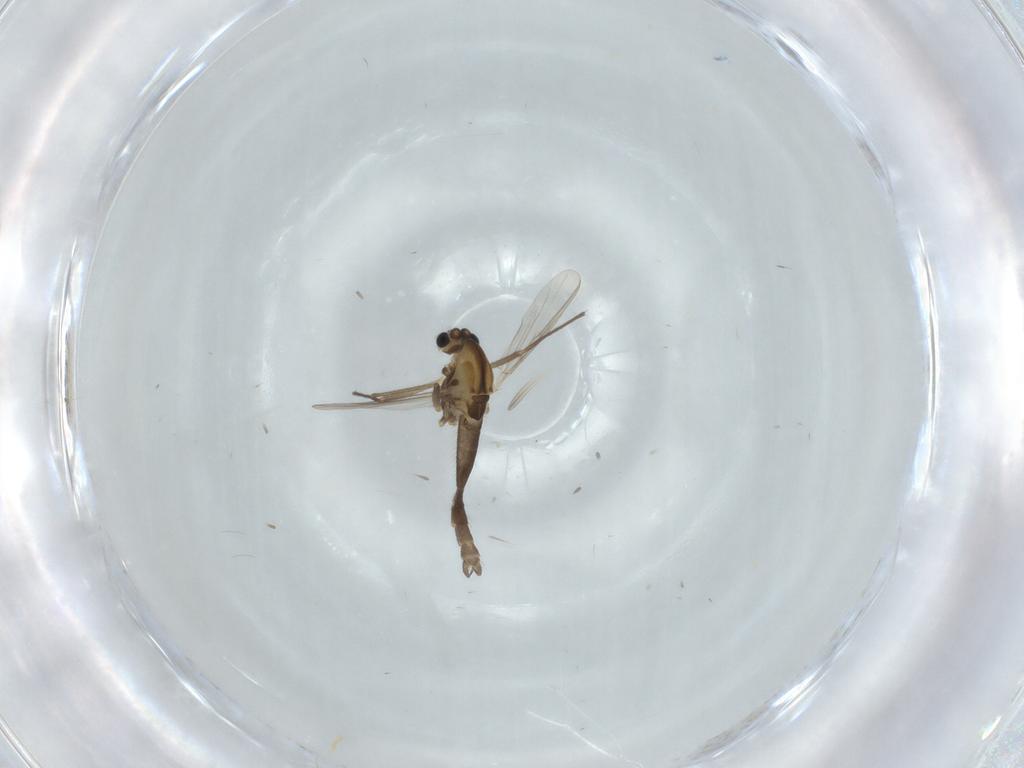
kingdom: Animalia
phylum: Arthropoda
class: Insecta
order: Diptera
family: Chironomidae
